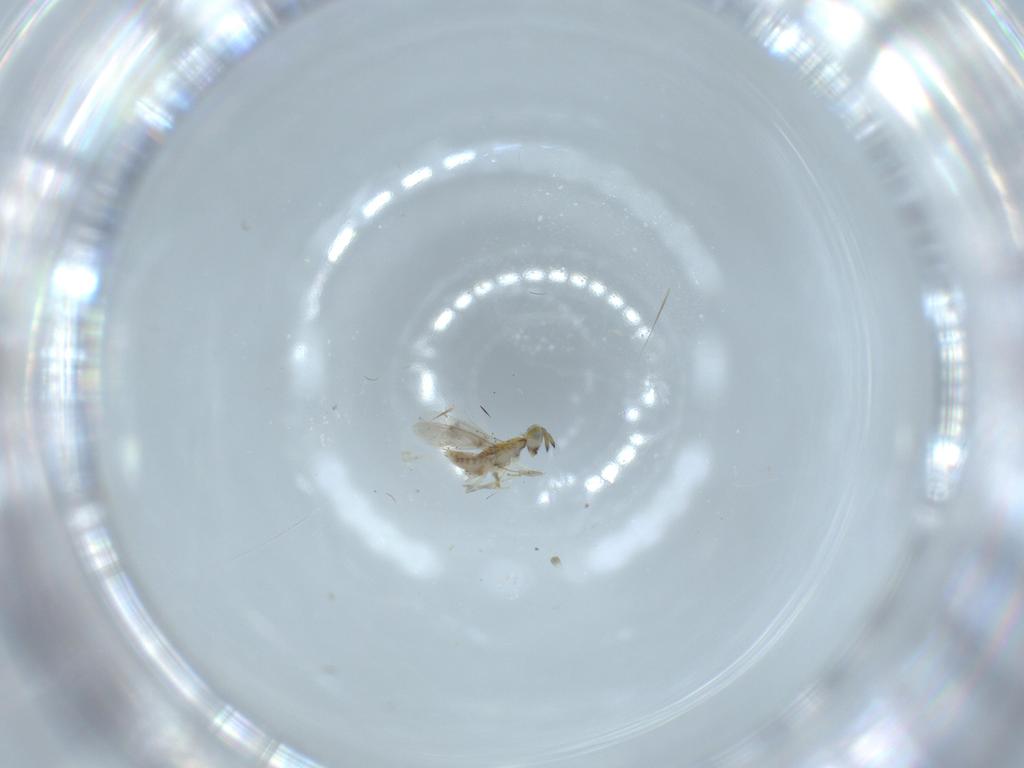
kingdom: Animalia
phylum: Arthropoda
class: Insecta
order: Hymenoptera
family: Aphelinidae
